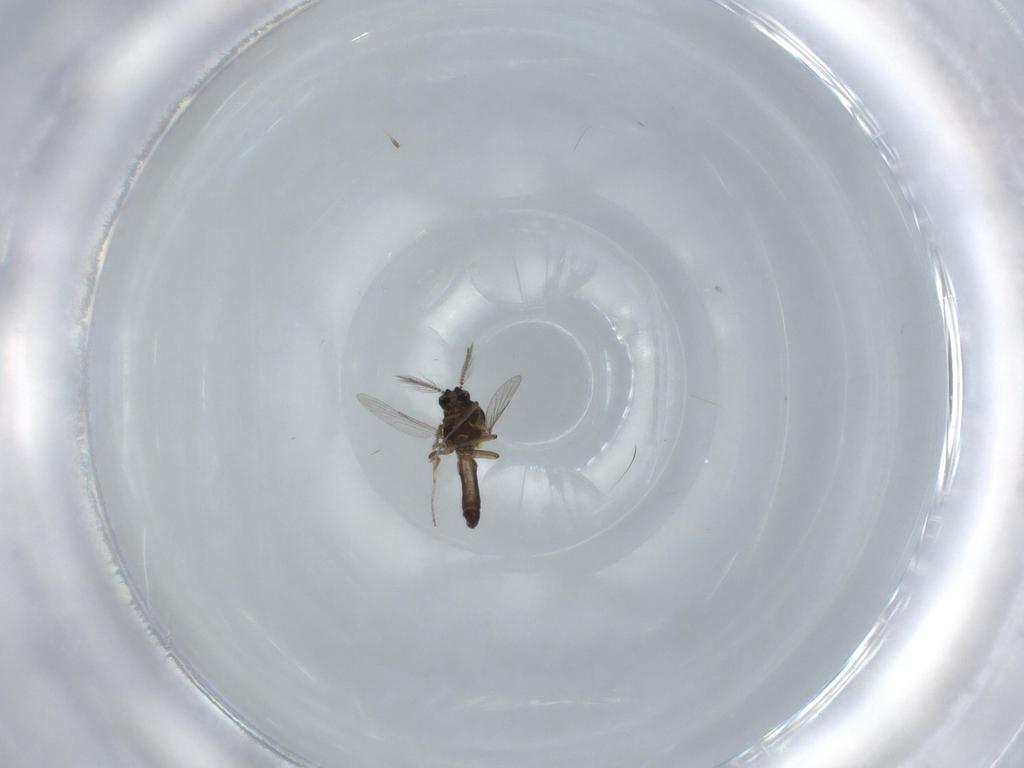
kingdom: Animalia
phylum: Arthropoda
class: Insecta
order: Diptera
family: Ceratopogonidae
